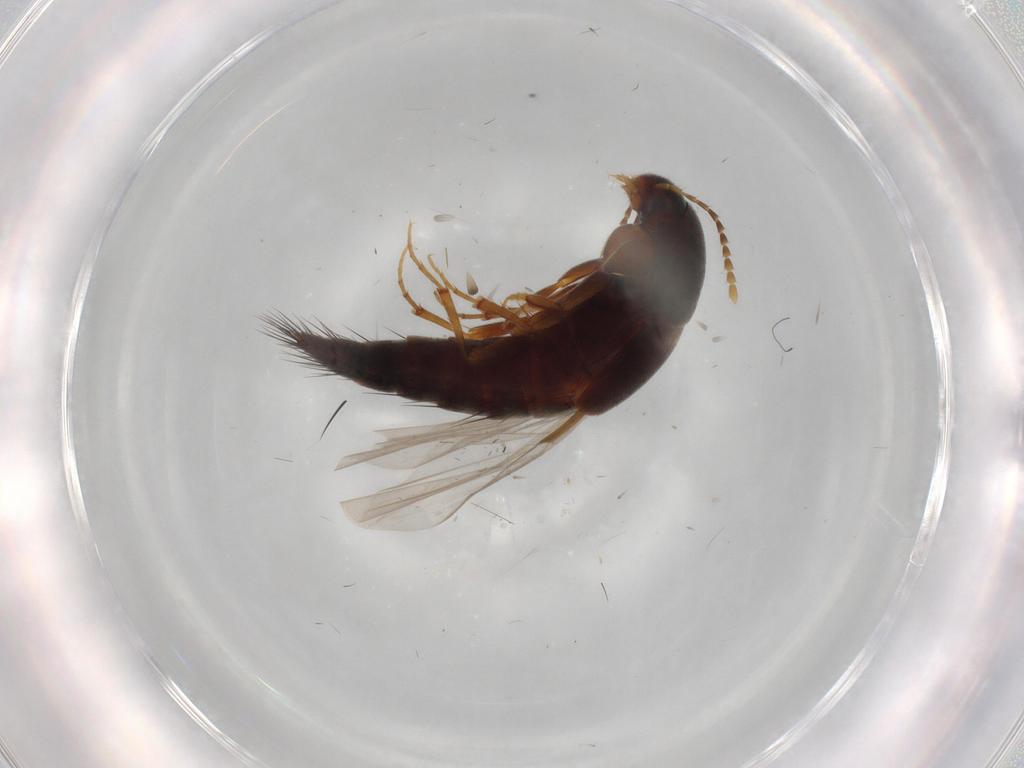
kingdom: Animalia
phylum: Arthropoda
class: Insecta
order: Coleoptera
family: Staphylinidae
